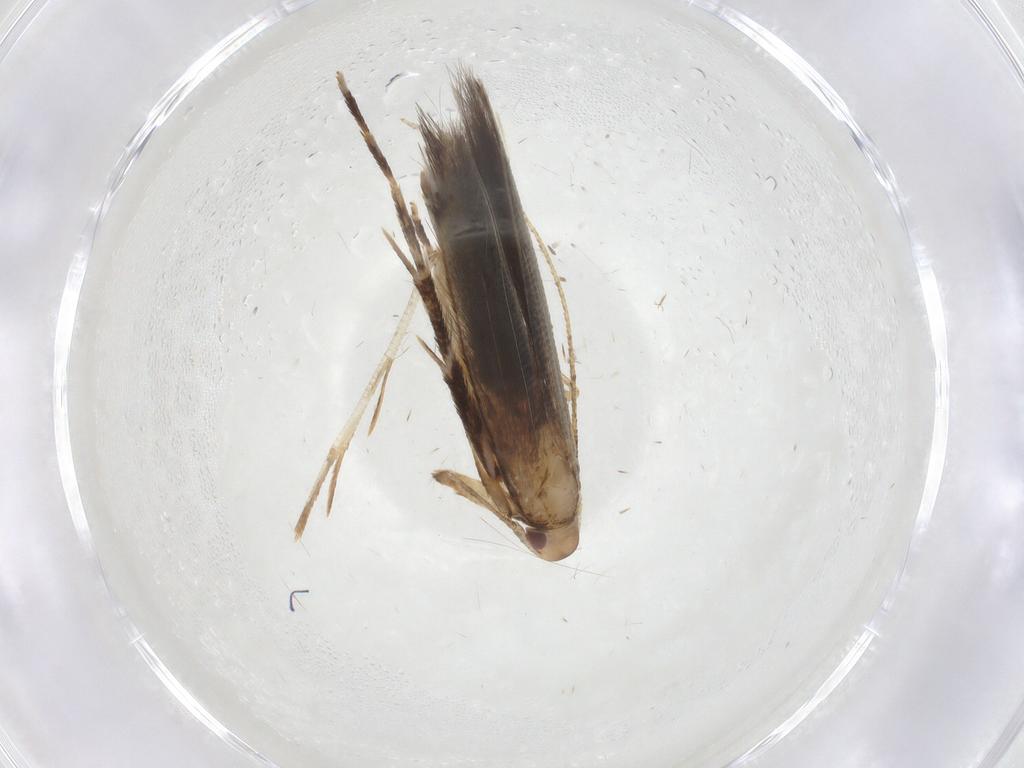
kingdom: Animalia
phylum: Arthropoda
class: Insecta
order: Lepidoptera
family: Cosmopterigidae
